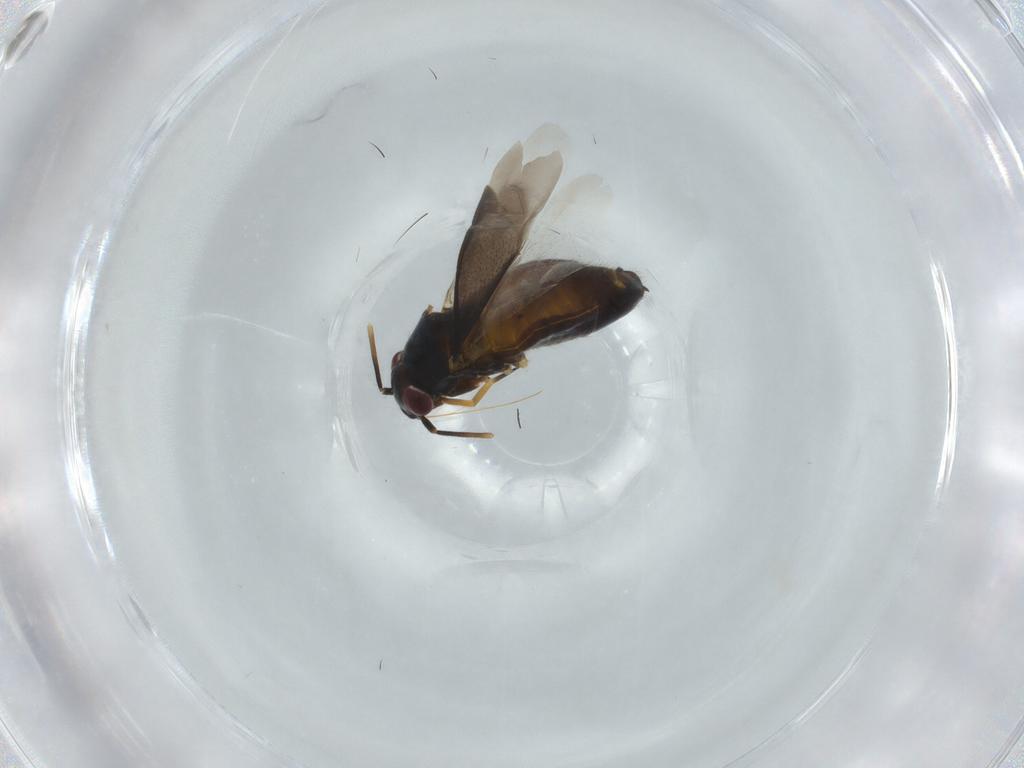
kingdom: Animalia
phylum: Arthropoda
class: Insecta
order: Hemiptera
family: Miridae
